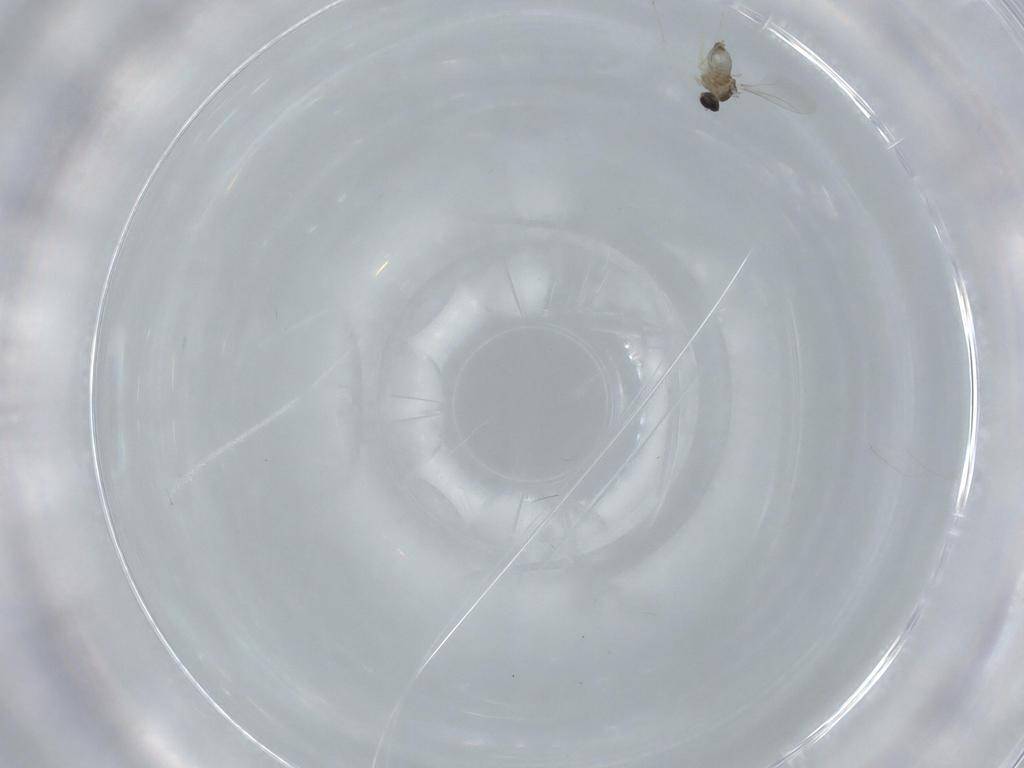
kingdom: Animalia
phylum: Arthropoda
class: Insecta
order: Diptera
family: Cecidomyiidae
